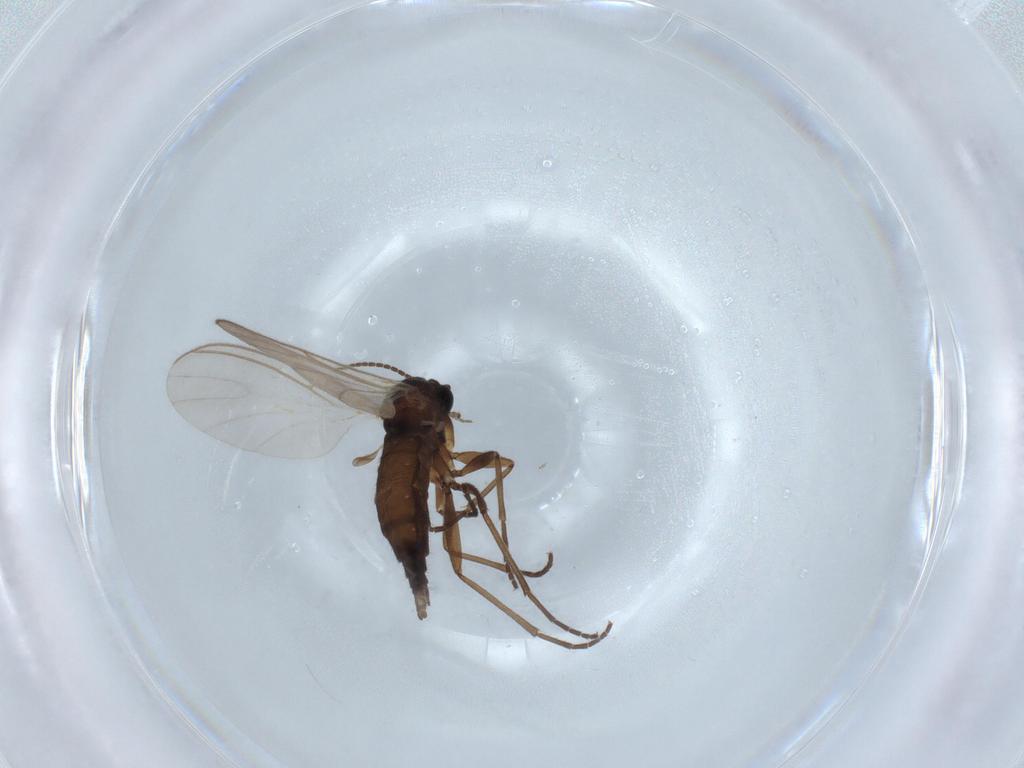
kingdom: Animalia
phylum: Arthropoda
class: Insecta
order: Diptera
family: Sciaridae
